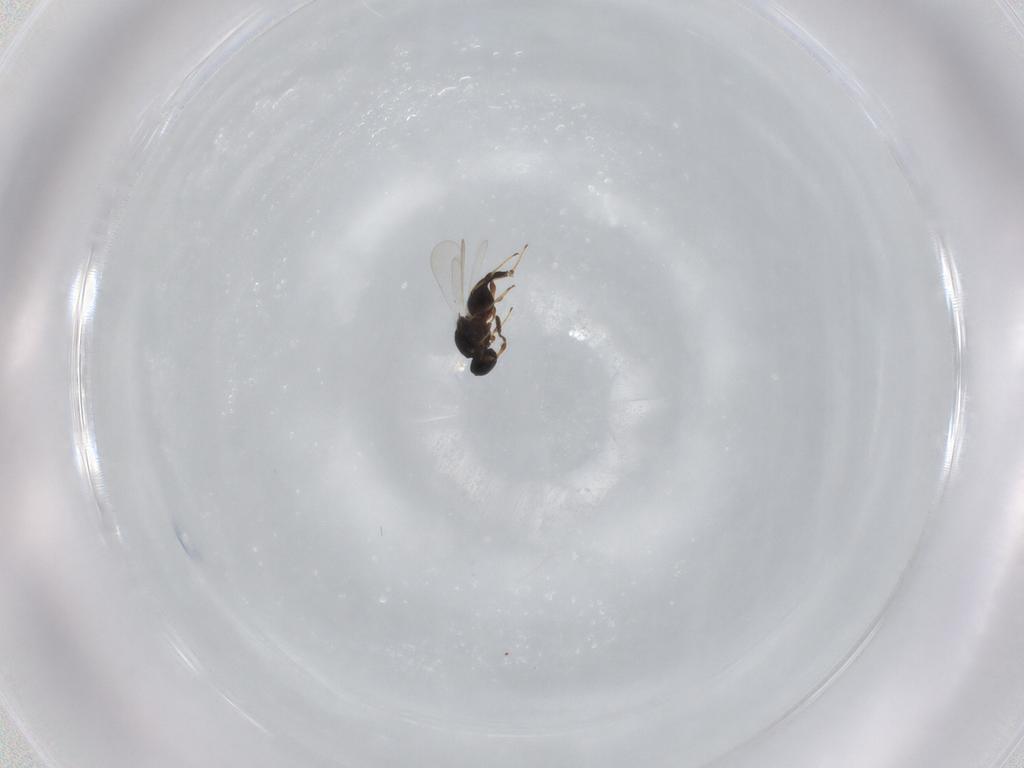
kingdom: Animalia
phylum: Arthropoda
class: Insecta
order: Hymenoptera
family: Platygastridae
